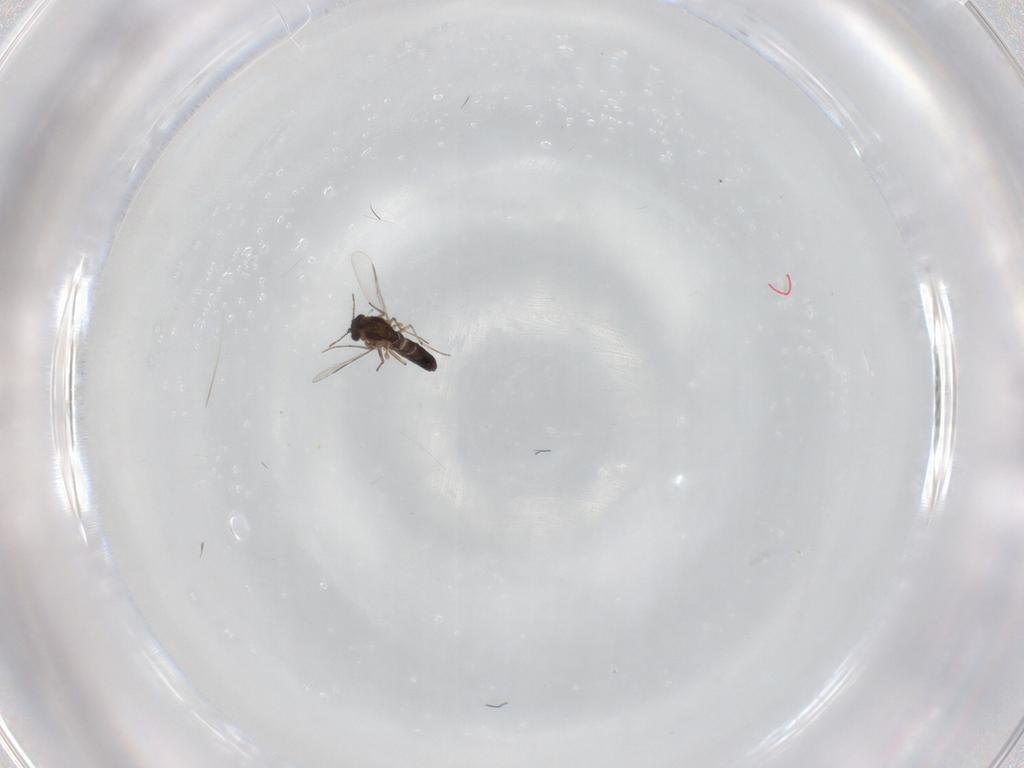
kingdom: Animalia
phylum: Arthropoda
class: Insecta
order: Diptera
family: Cecidomyiidae
